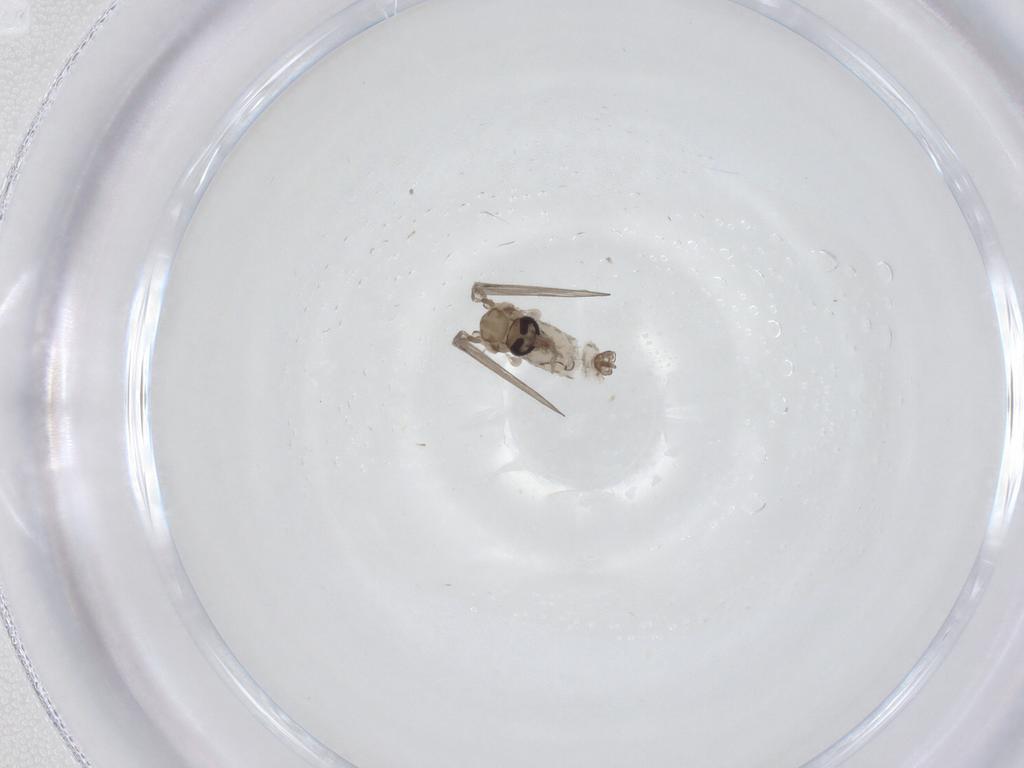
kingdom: Animalia
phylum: Arthropoda
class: Insecta
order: Diptera
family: Psychodidae
